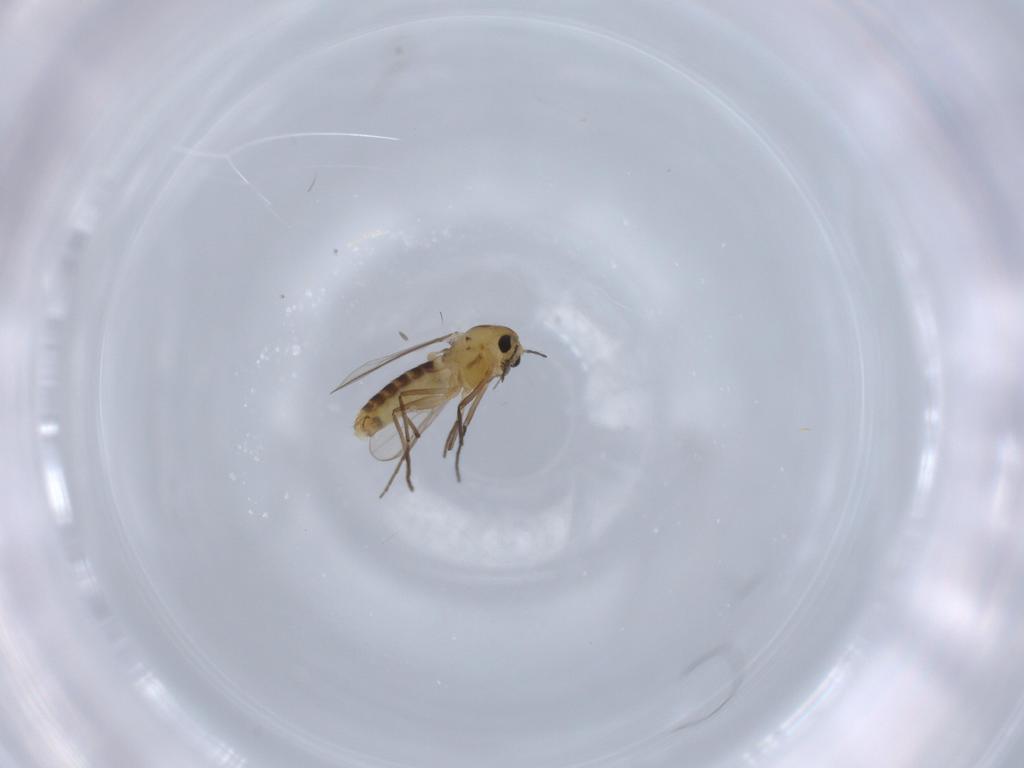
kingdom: Animalia
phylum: Arthropoda
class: Insecta
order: Diptera
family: Chironomidae
